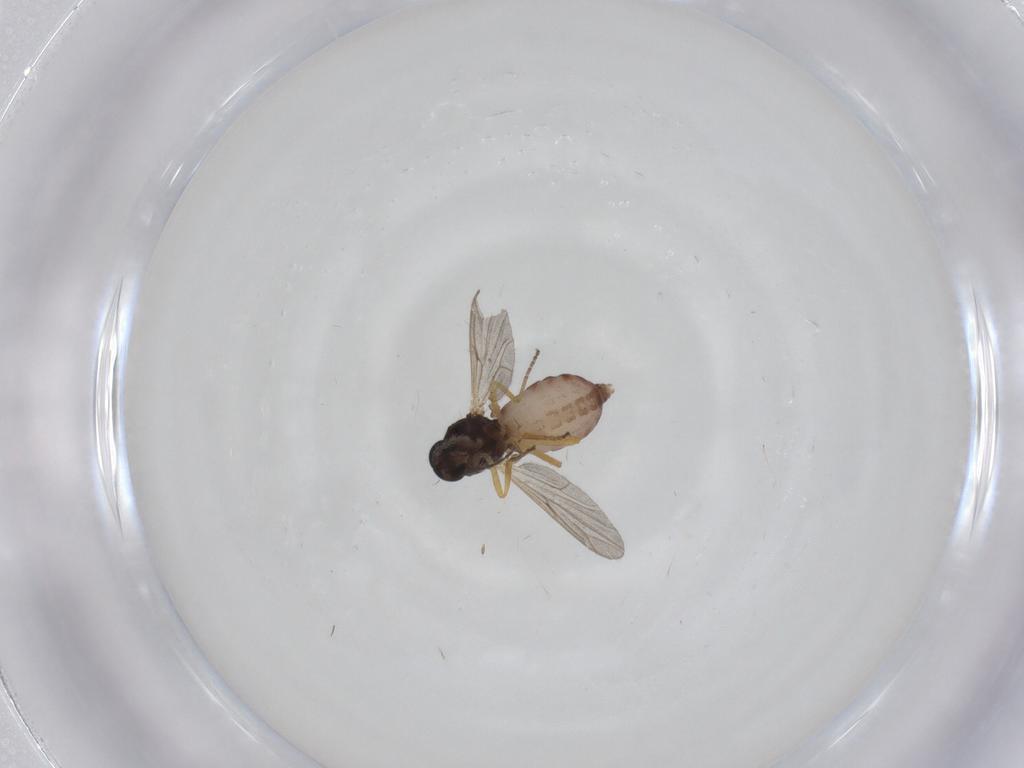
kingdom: Animalia
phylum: Arthropoda
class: Insecta
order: Diptera
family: Ceratopogonidae
